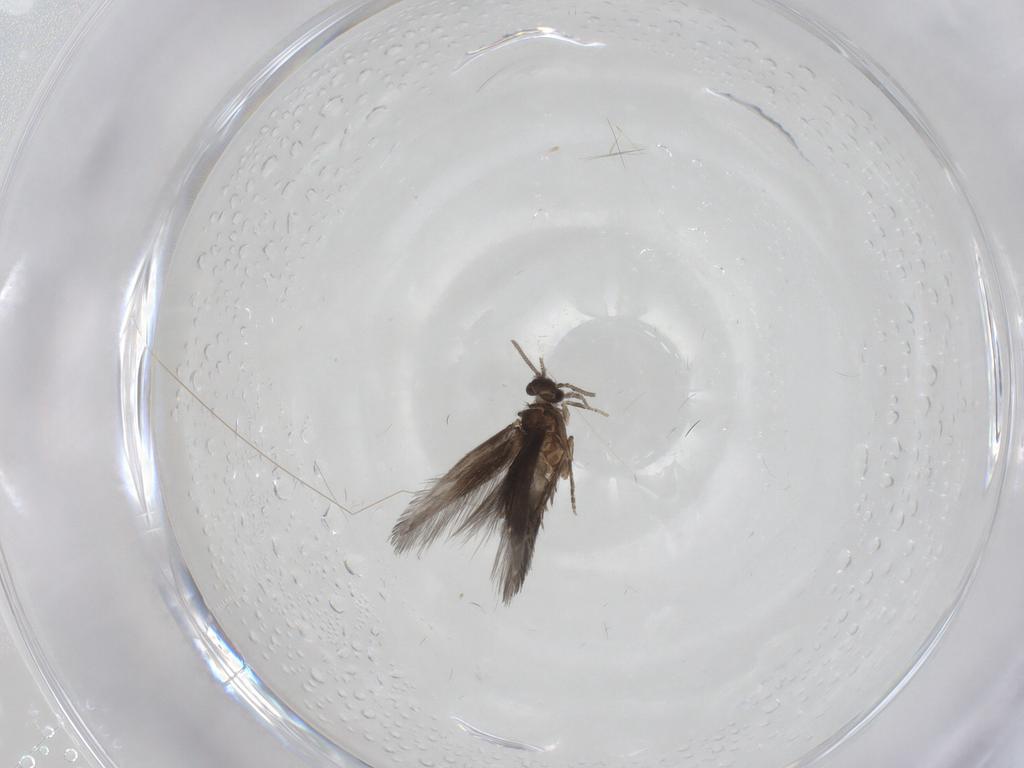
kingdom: Animalia
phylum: Arthropoda
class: Insecta
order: Trichoptera
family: Hydroptilidae
